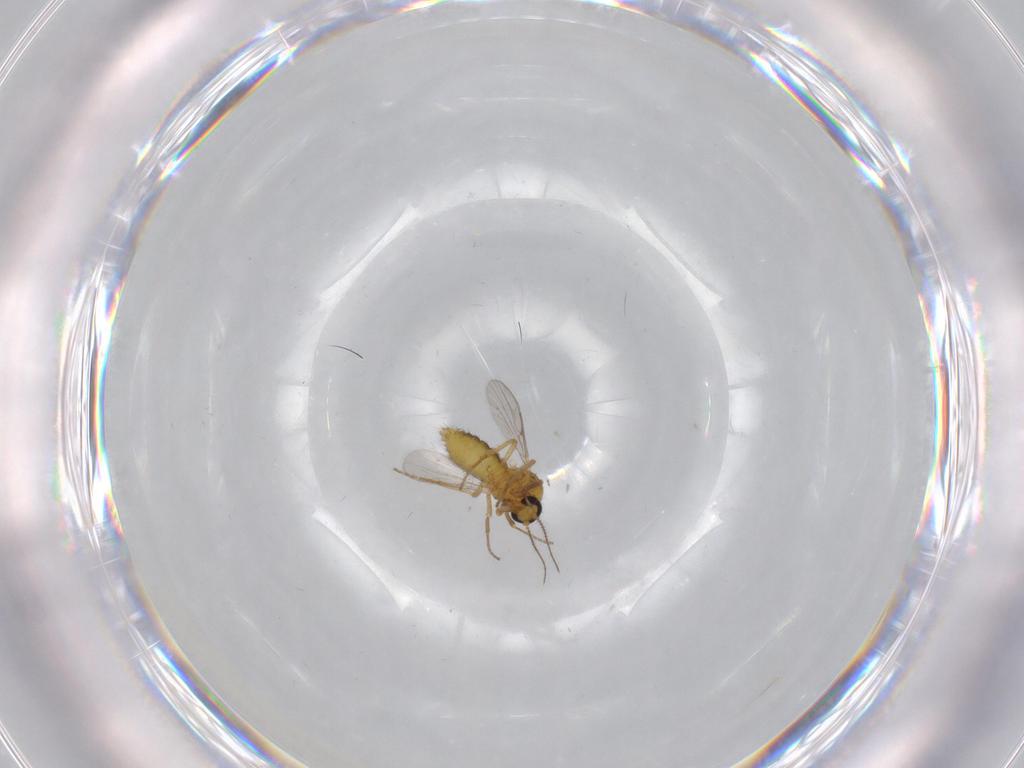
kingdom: Animalia
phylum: Arthropoda
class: Insecta
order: Diptera
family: Ceratopogonidae
